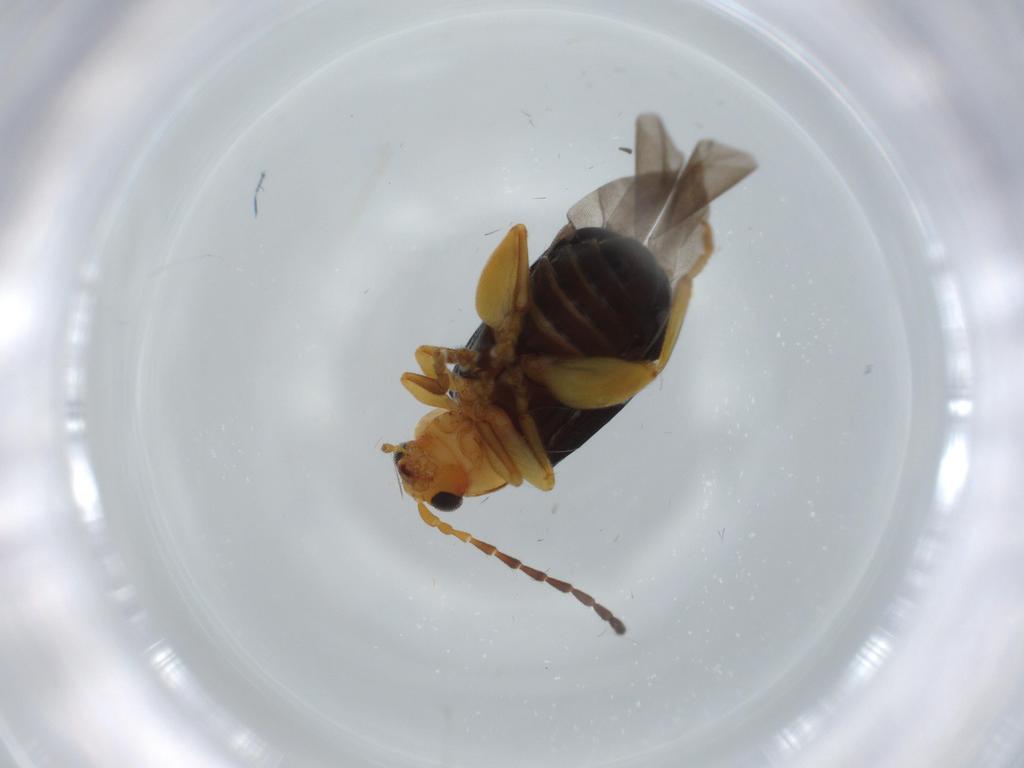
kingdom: Animalia
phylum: Arthropoda
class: Insecta
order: Coleoptera
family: Chrysomelidae
